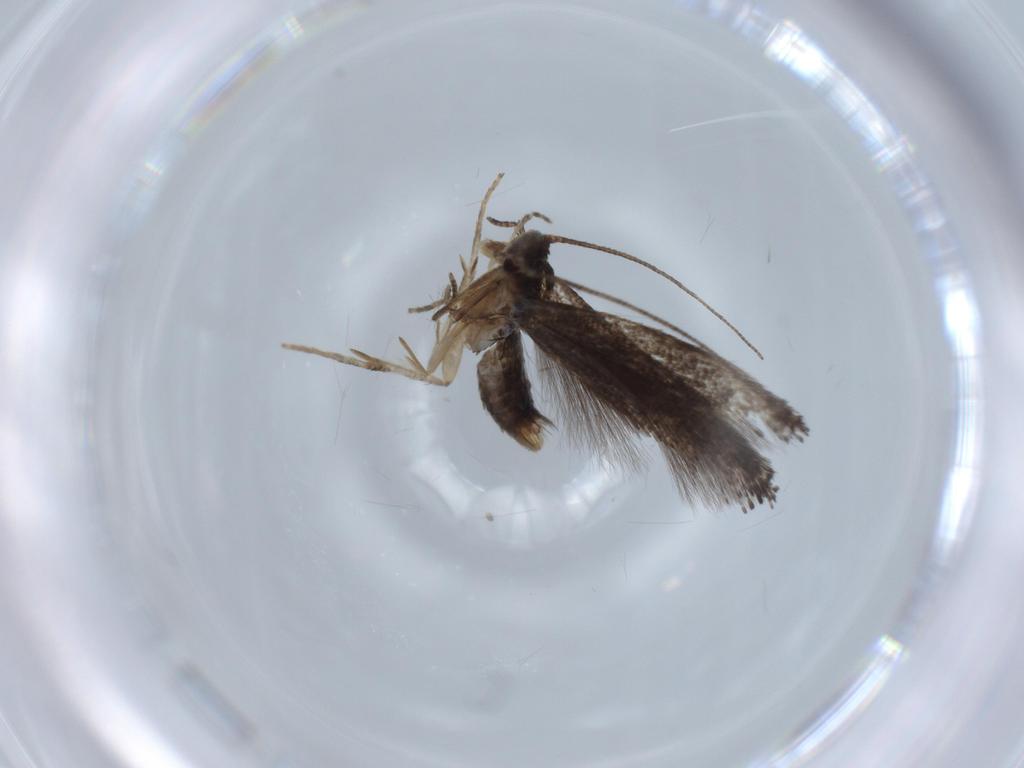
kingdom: Animalia
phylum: Arthropoda
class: Insecta
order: Lepidoptera
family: Gelechiidae
